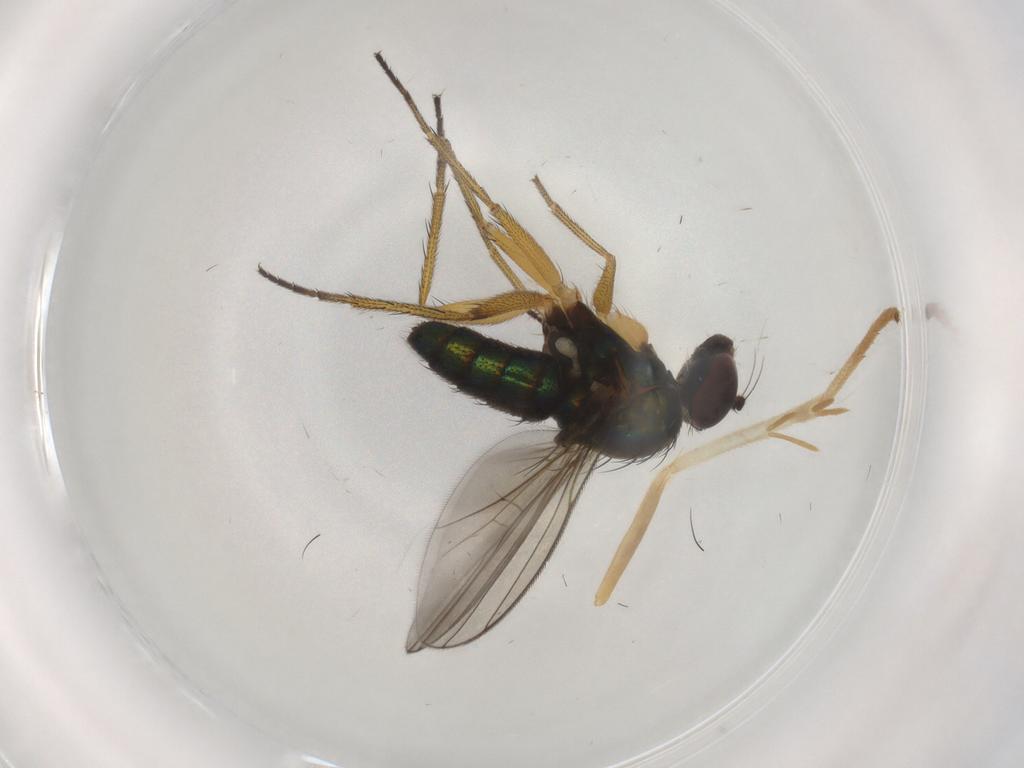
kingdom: Animalia
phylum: Arthropoda
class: Insecta
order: Diptera
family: Dolichopodidae
